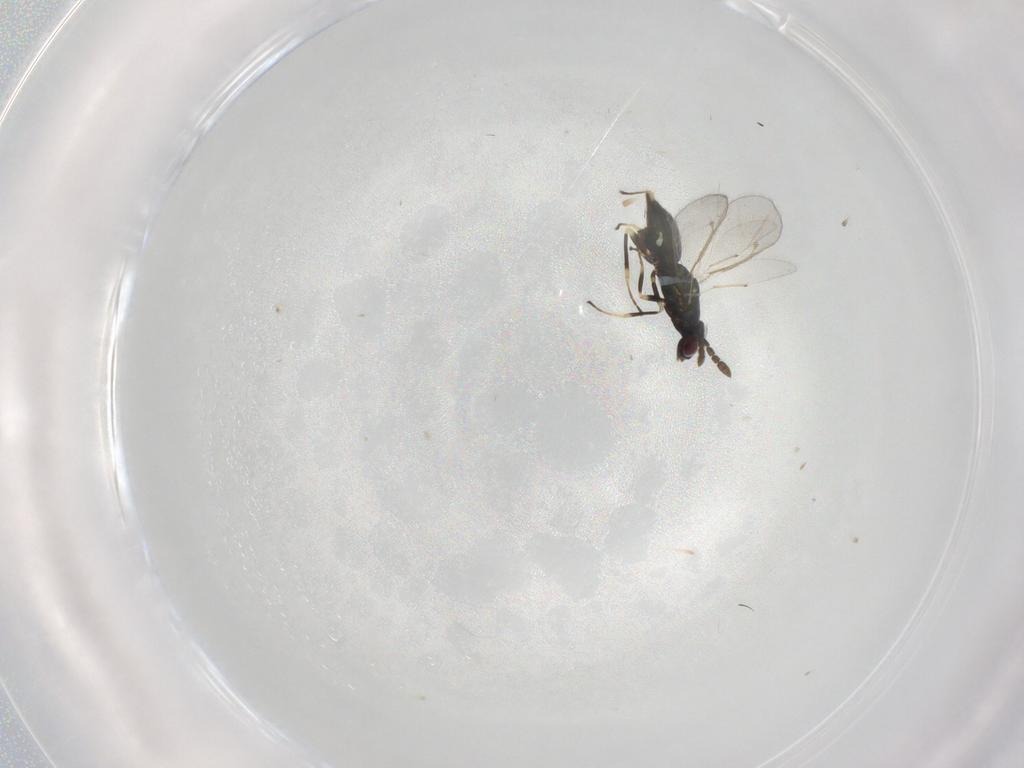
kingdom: Animalia
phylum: Arthropoda
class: Insecta
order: Hymenoptera
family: Eulophidae
